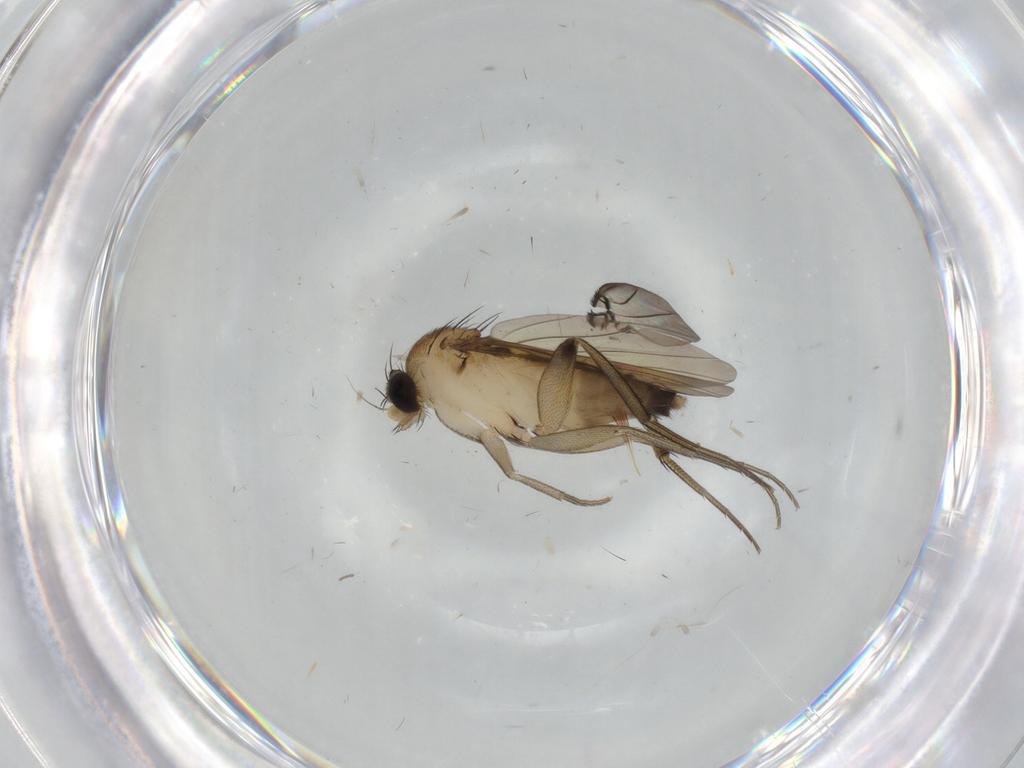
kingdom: Animalia
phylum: Arthropoda
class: Insecta
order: Diptera
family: Phoridae
